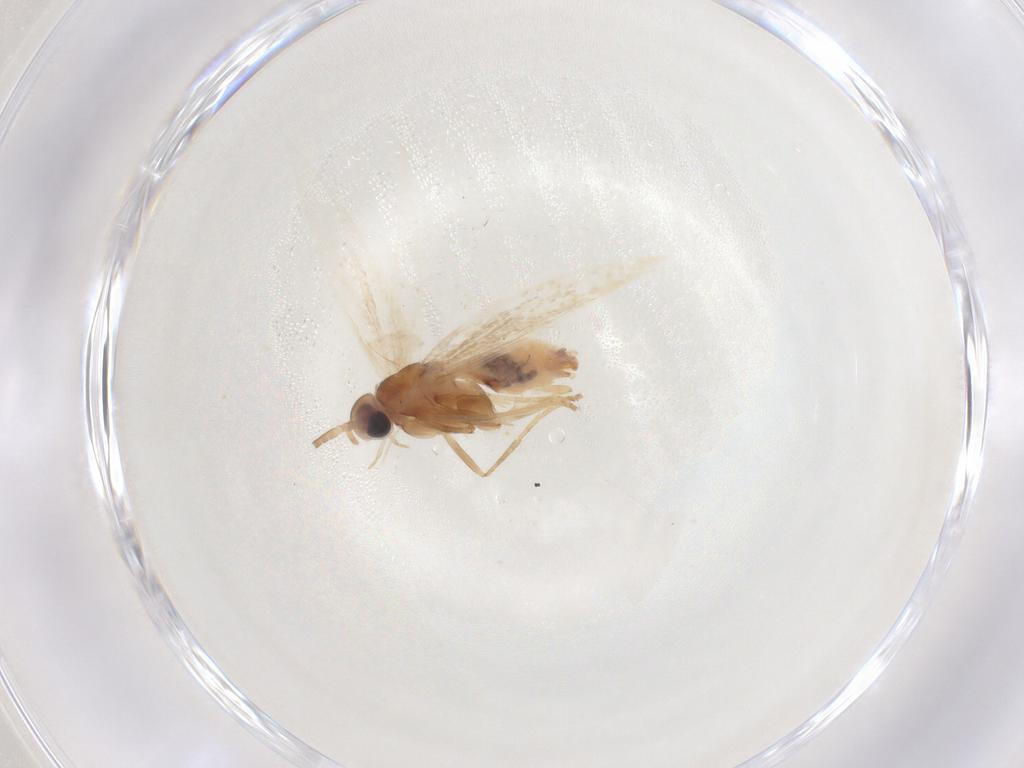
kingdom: Animalia
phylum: Arthropoda
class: Insecta
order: Lepidoptera
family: Coleophoridae
